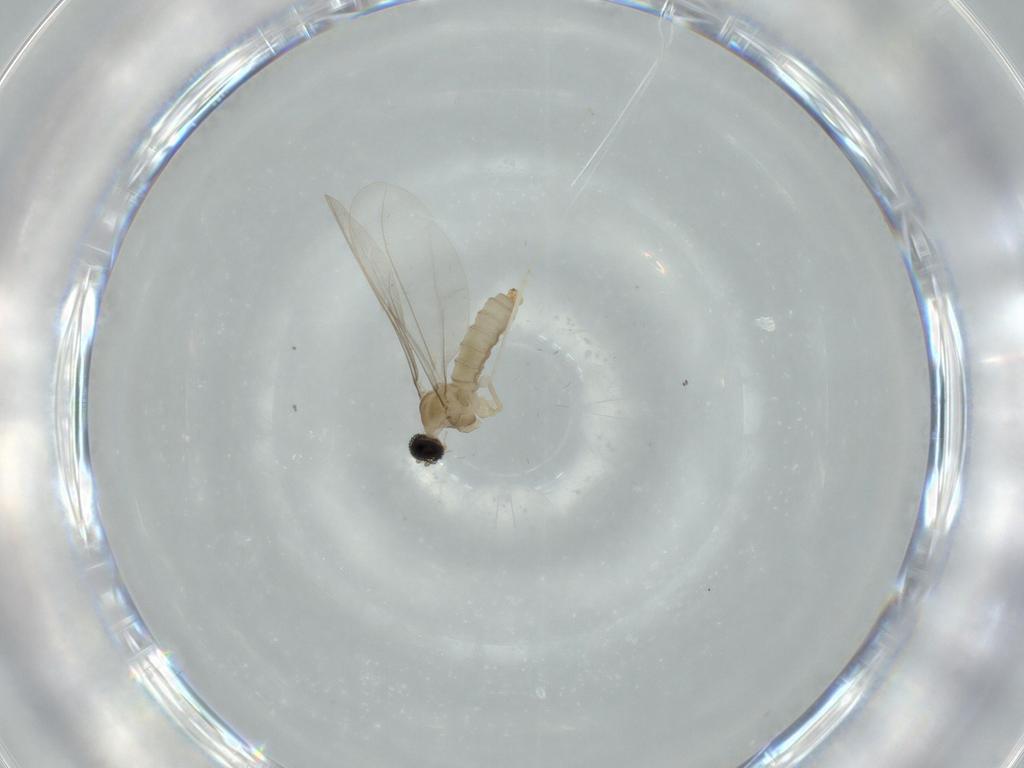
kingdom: Animalia
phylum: Arthropoda
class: Insecta
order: Diptera
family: Cecidomyiidae
